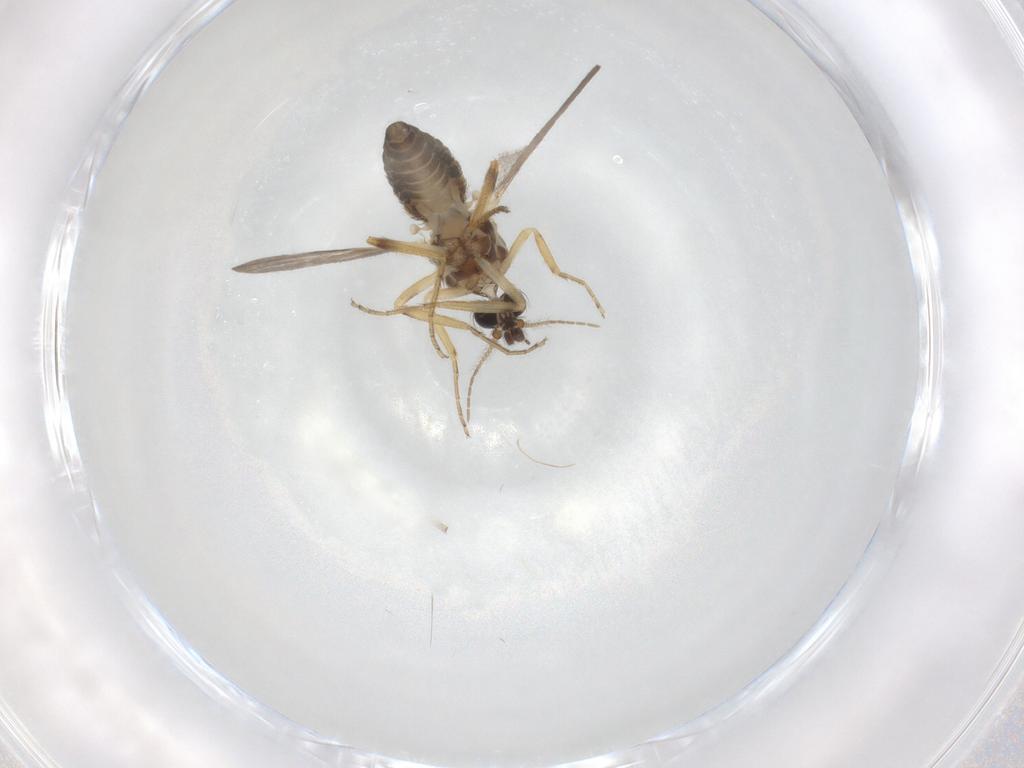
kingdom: Animalia
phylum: Arthropoda
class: Insecta
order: Diptera
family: Ceratopogonidae
